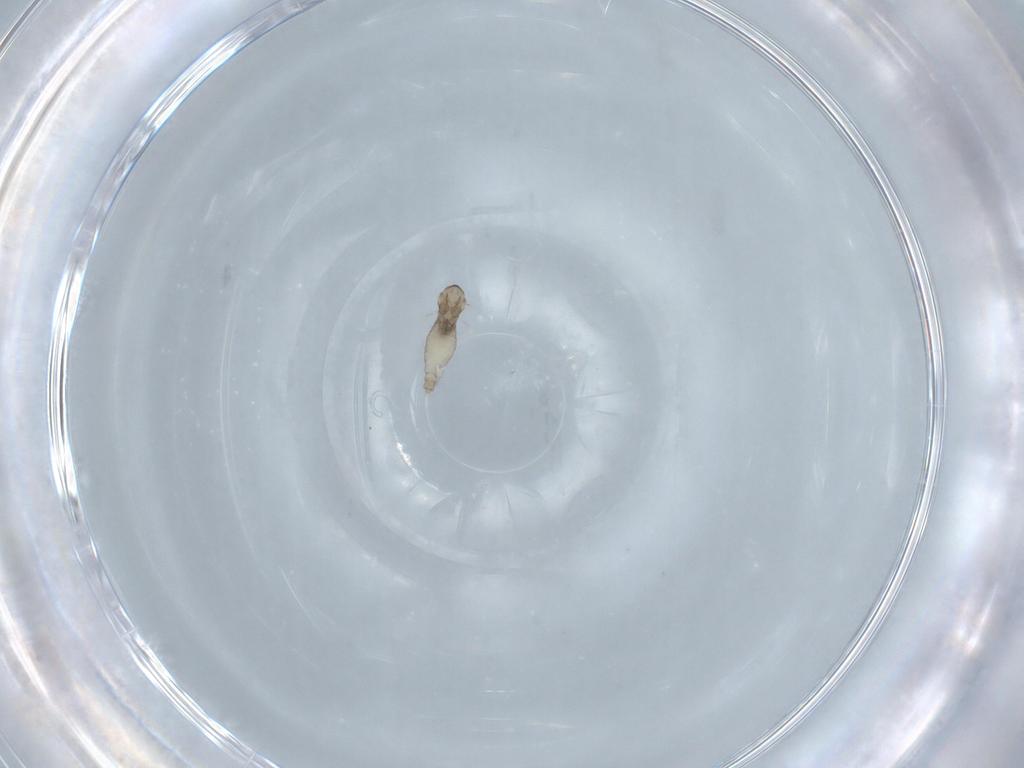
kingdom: Animalia
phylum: Arthropoda
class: Insecta
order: Diptera
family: Cecidomyiidae
